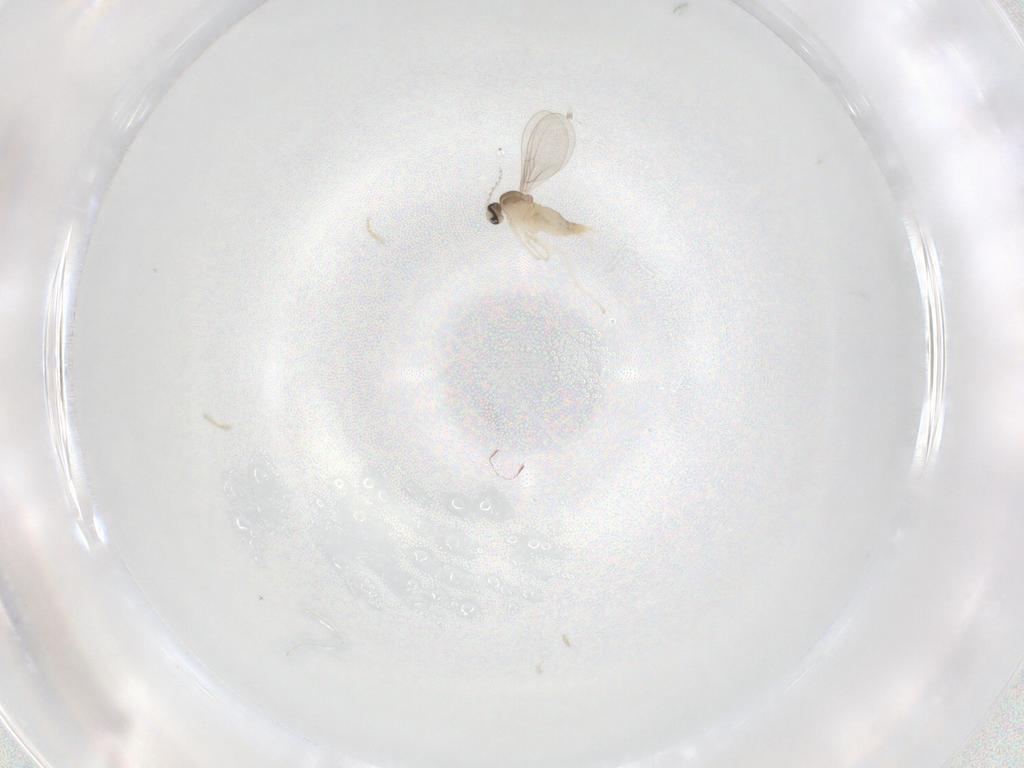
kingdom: Animalia
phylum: Arthropoda
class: Insecta
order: Diptera
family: Cecidomyiidae
